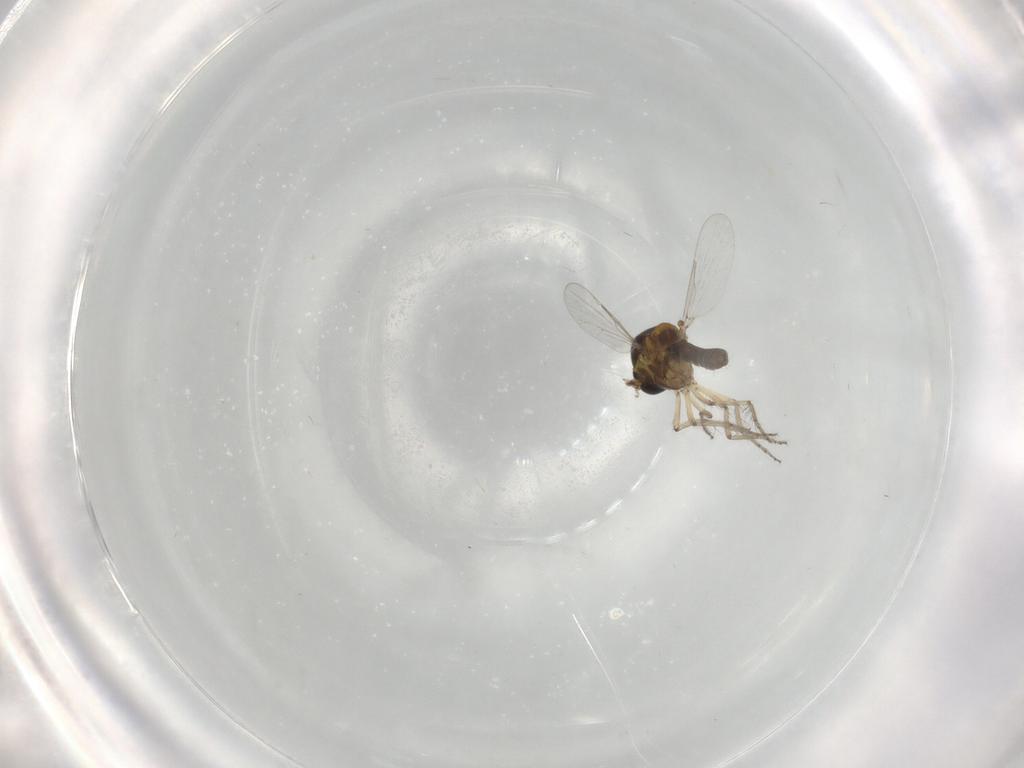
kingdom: Animalia
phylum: Arthropoda
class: Insecta
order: Diptera
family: Ceratopogonidae
